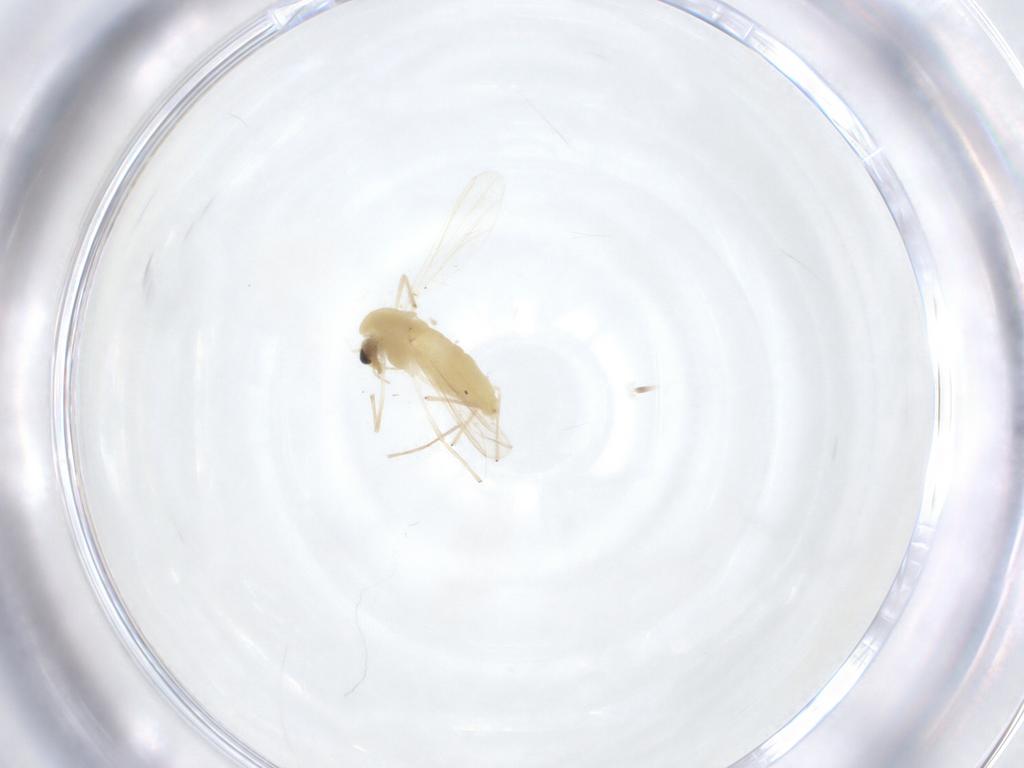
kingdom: Animalia
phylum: Arthropoda
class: Insecta
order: Diptera
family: Chironomidae
